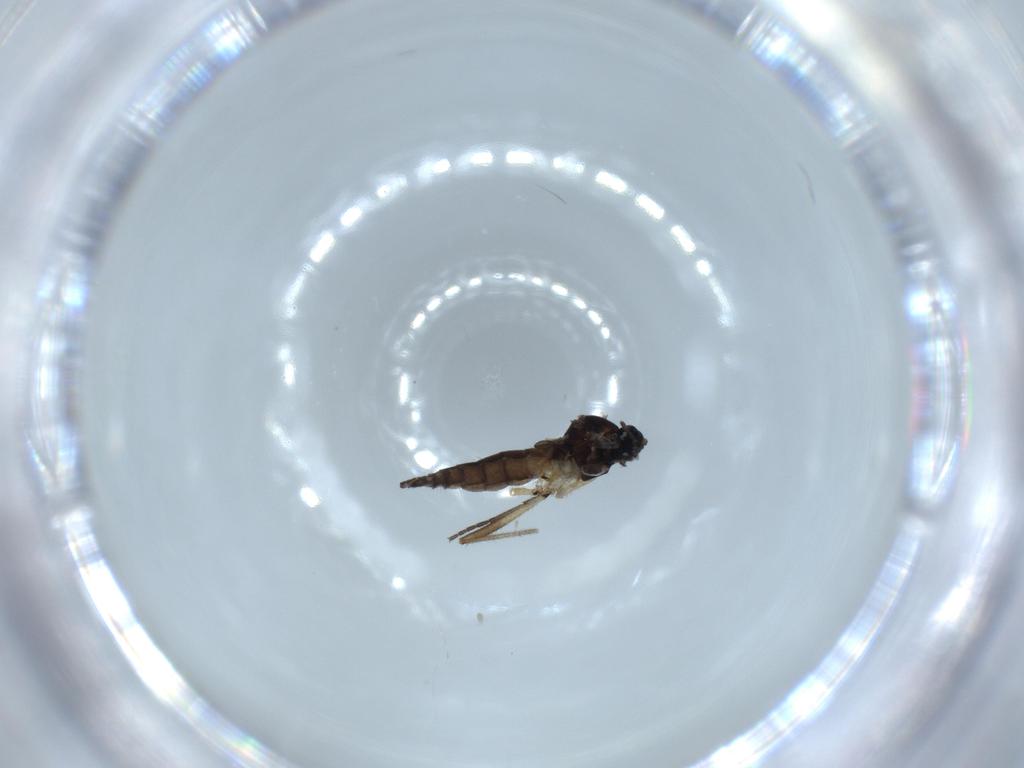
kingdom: Animalia
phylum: Arthropoda
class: Insecta
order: Diptera
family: Sciaridae
